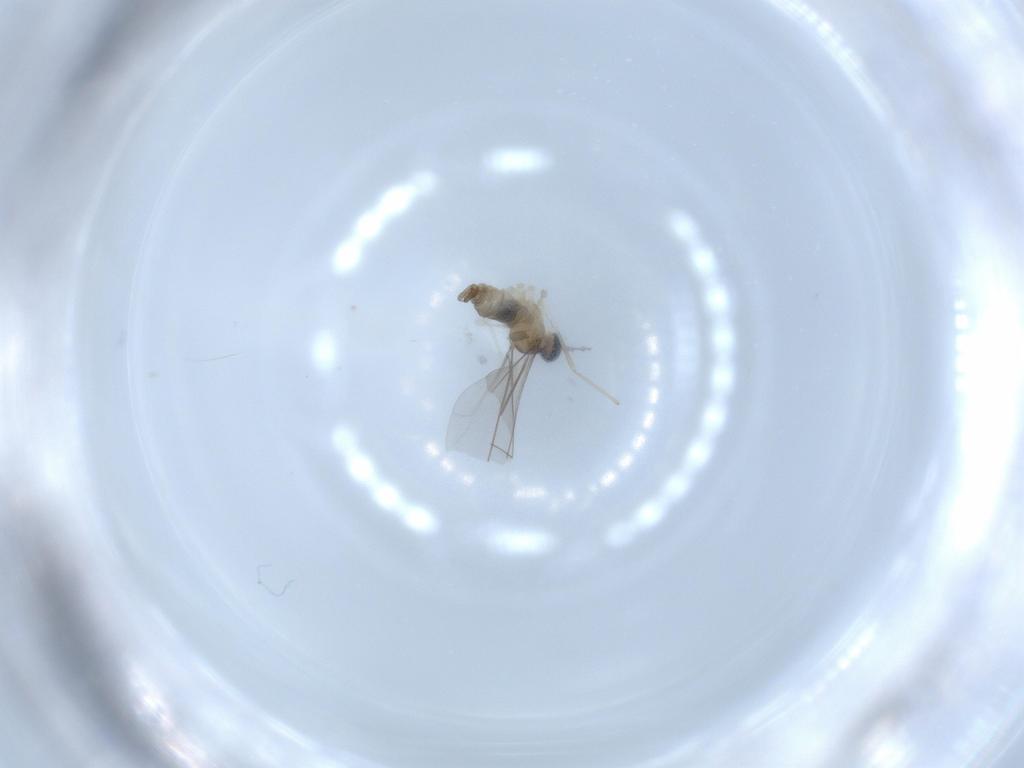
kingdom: Animalia
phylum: Arthropoda
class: Insecta
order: Diptera
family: Cecidomyiidae
